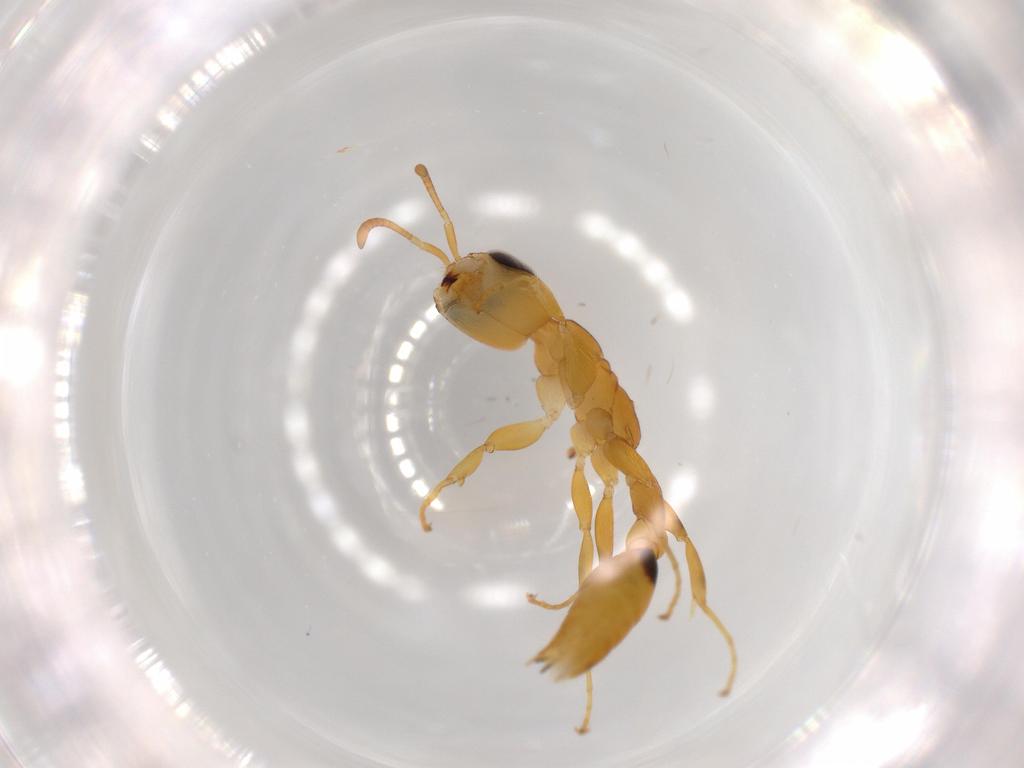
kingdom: Animalia
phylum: Arthropoda
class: Insecta
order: Hymenoptera
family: Formicidae
